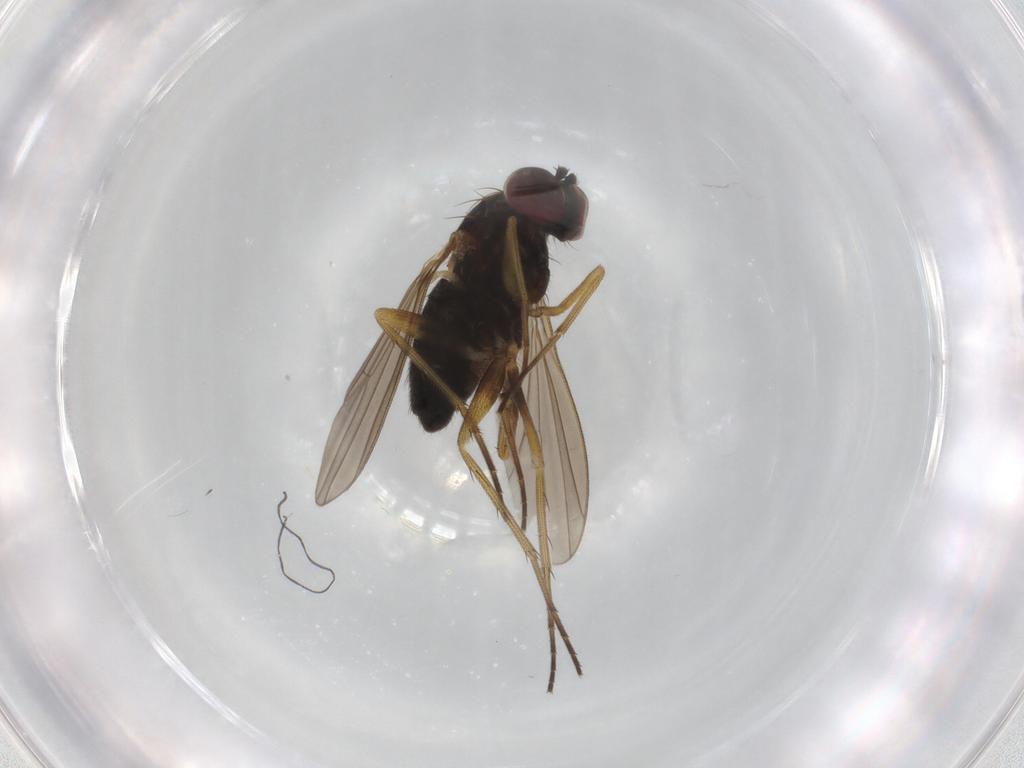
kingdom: Animalia
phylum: Arthropoda
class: Insecta
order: Diptera
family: Dolichopodidae
